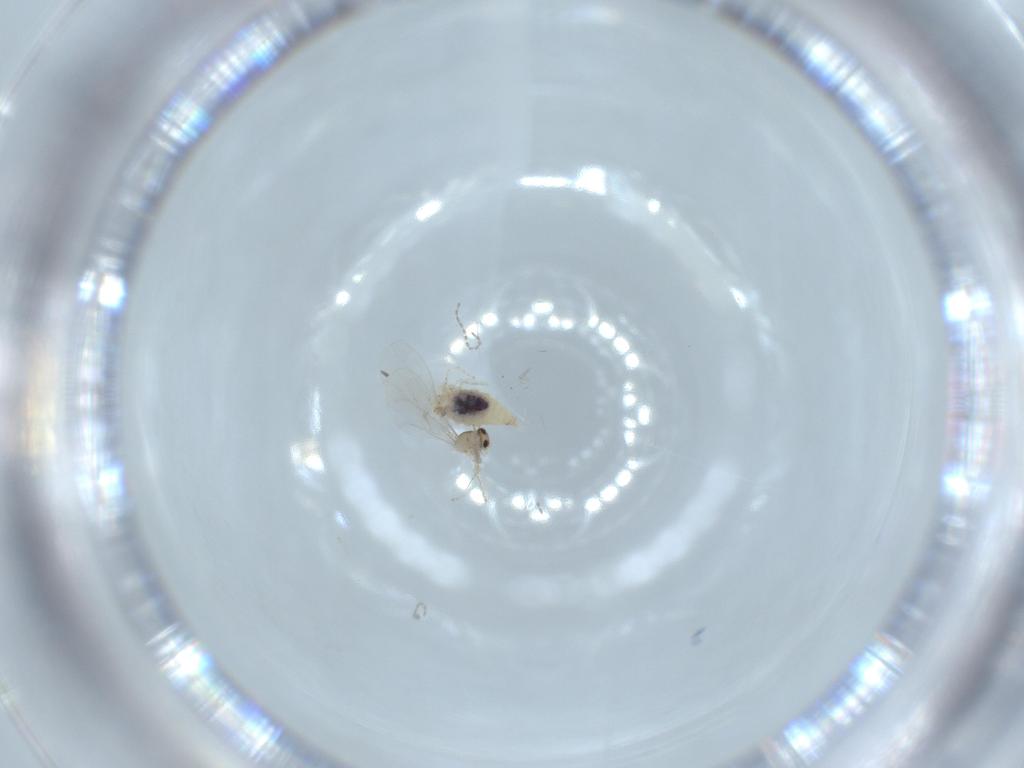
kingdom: Animalia
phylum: Arthropoda
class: Insecta
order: Diptera
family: Cecidomyiidae
